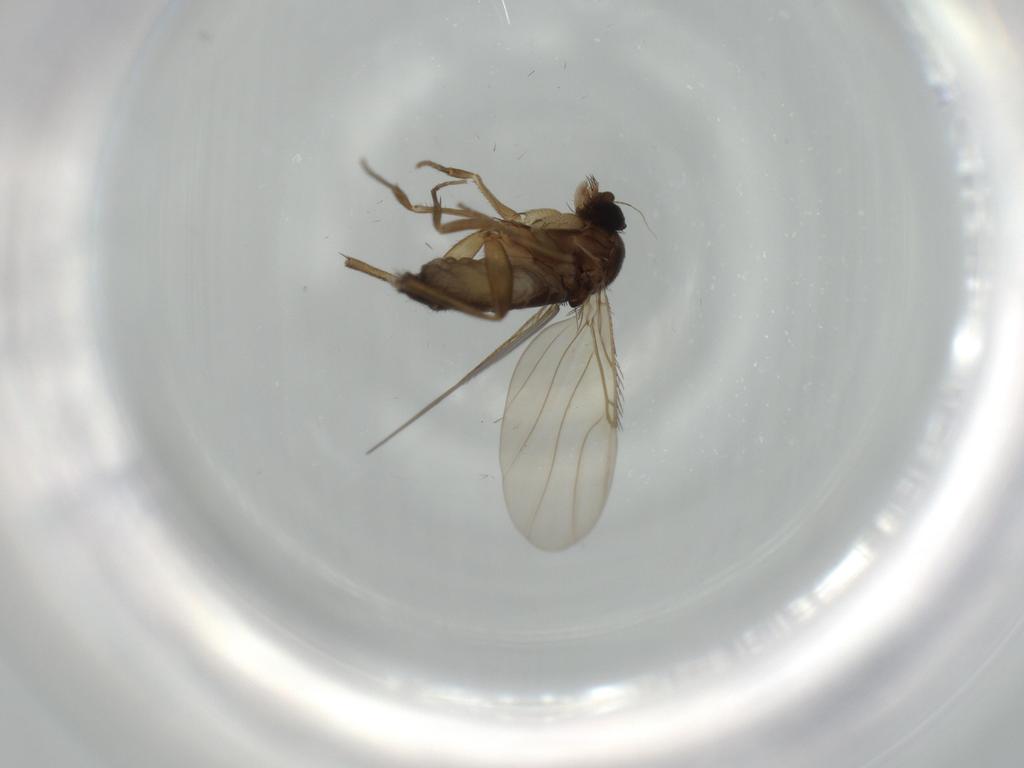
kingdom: Animalia
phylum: Arthropoda
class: Insecta
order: Diptera
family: Phoridae
